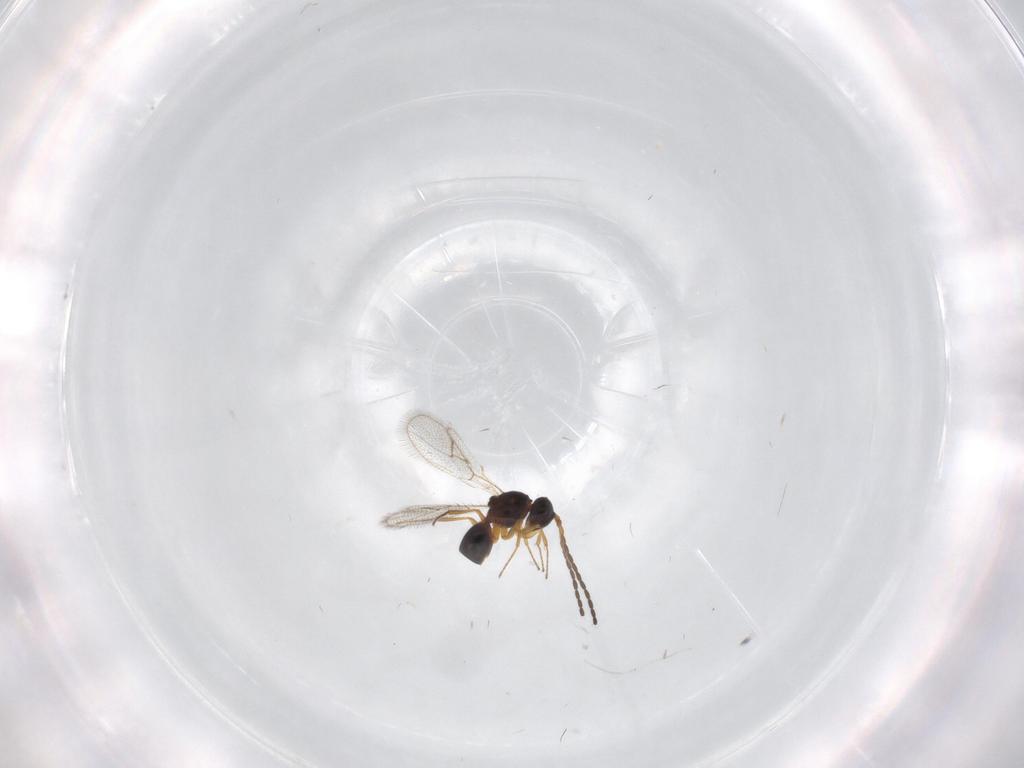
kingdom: Animalia
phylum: Arthropoda
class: Insecta
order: Hymenoptera
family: Figitidae
